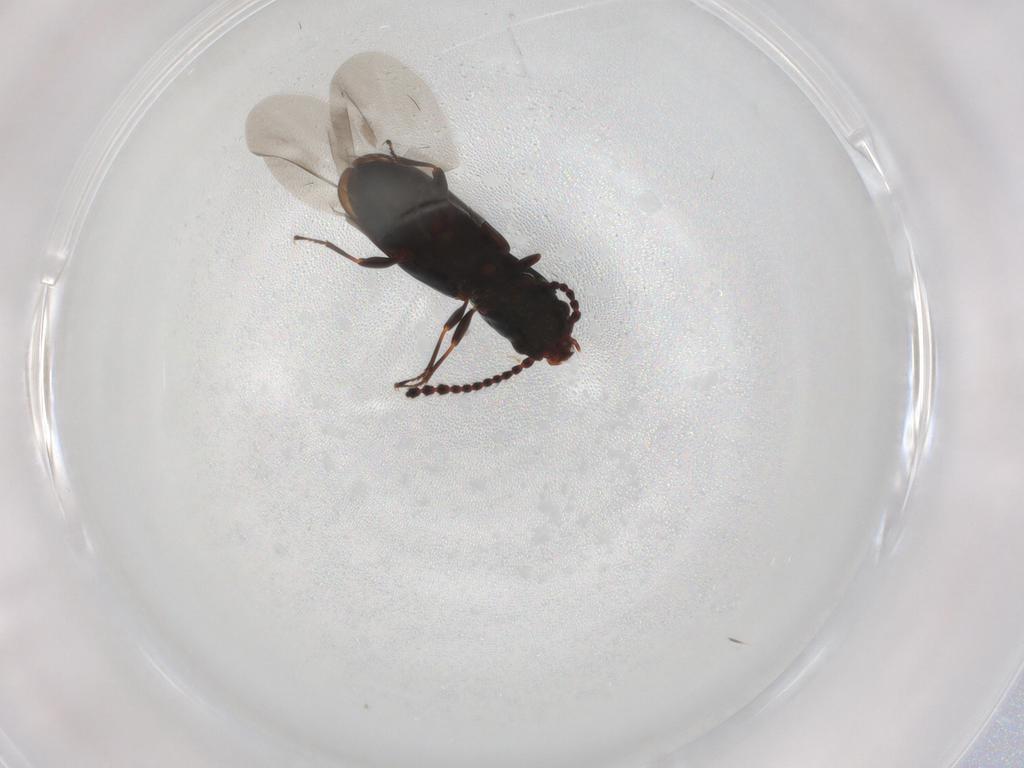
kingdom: Animalia
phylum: Arthropoda
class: Insecta
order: Coleoptera
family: Laemophloeidae
